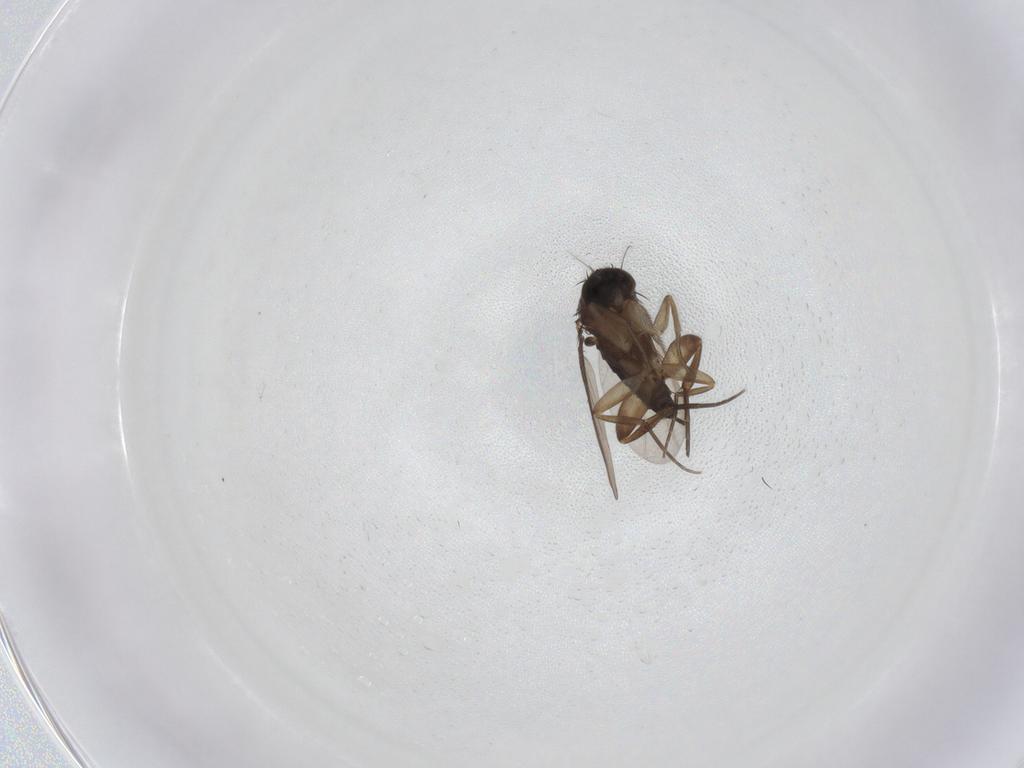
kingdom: Animalia
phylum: Arthropoda
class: Insecta
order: Diptera
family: Phoridae
